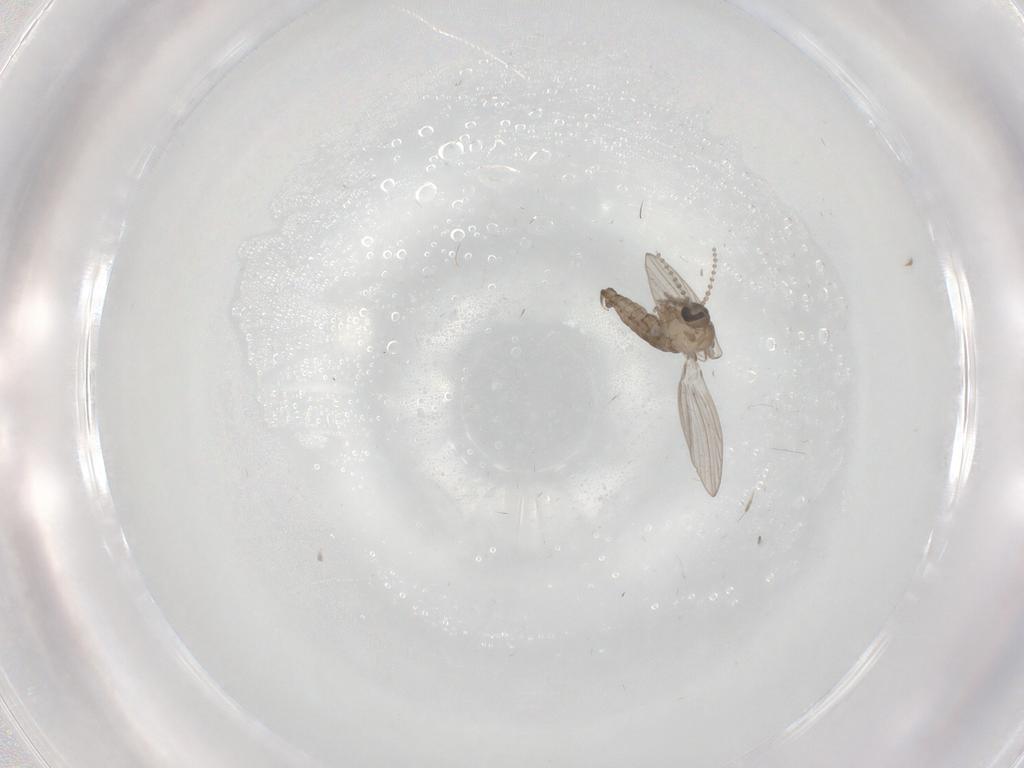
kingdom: Animalia
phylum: Arthropoda
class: Insecta
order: Diptera
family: Psychodidae
